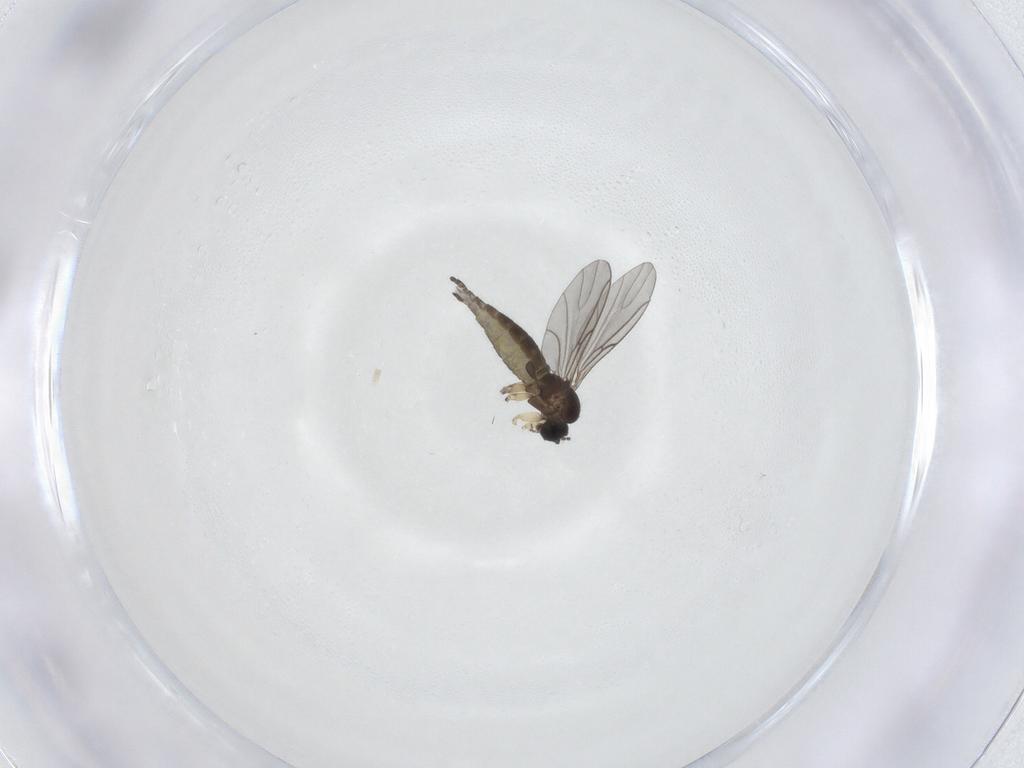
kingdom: Animalia
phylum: Arthropoda
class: Insecta
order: Diptera
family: Sciaridae
